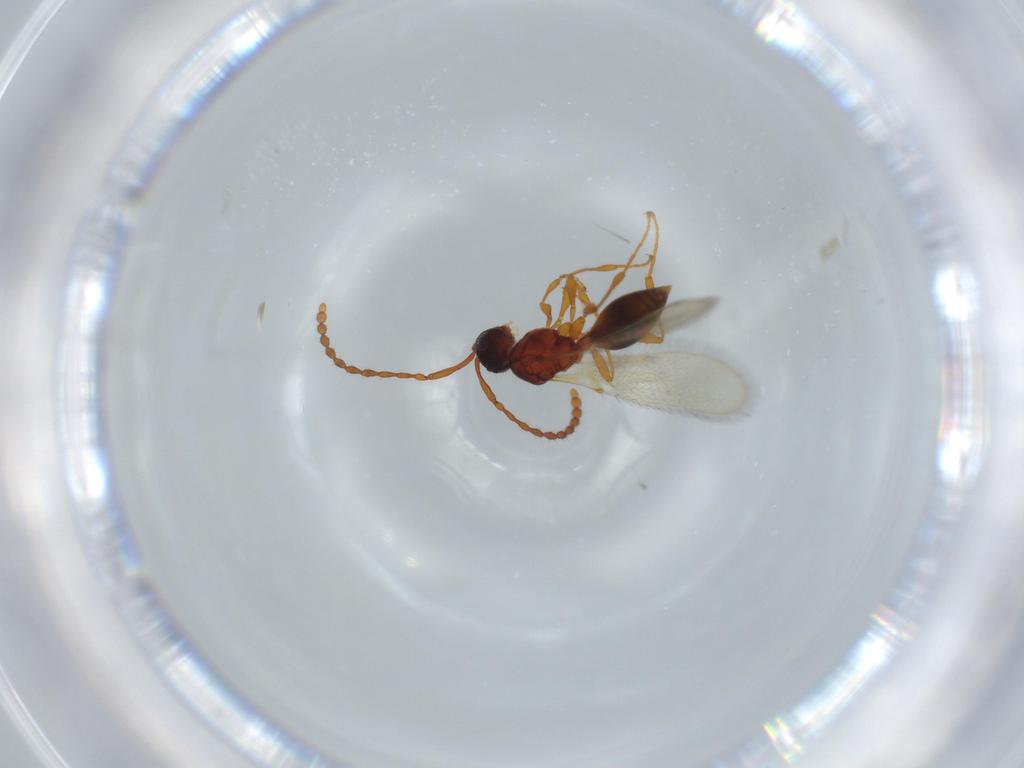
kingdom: Animalia
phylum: Arthropoda
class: Insecta
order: Hymenoptera
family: Diapriidae
